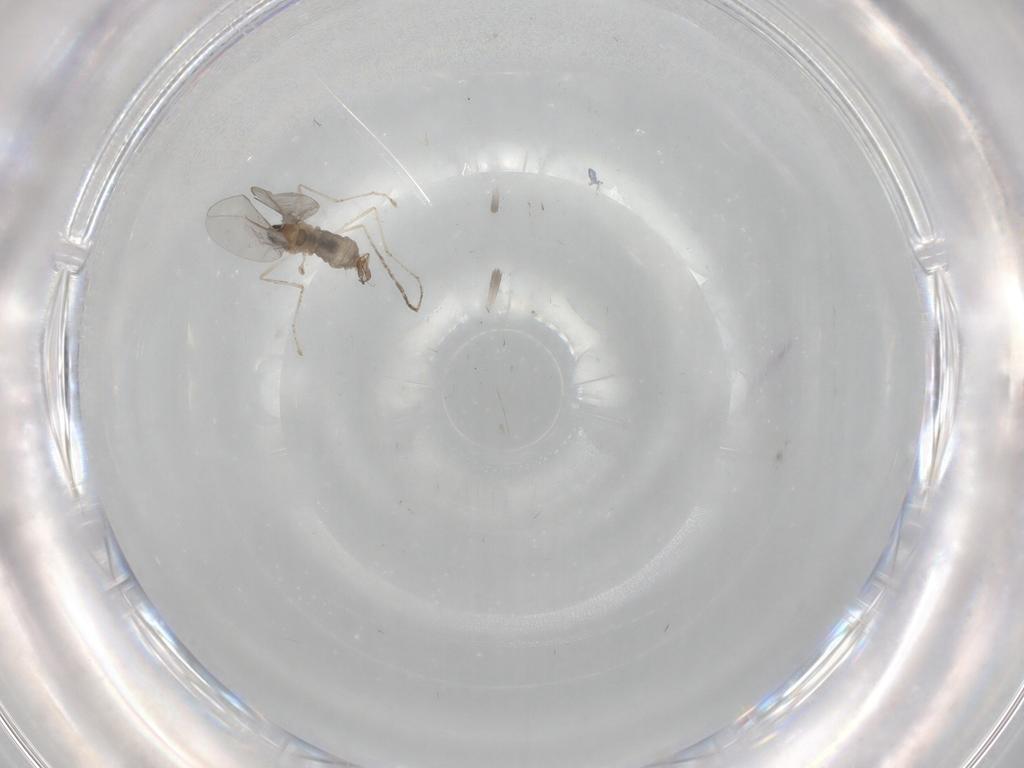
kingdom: Animalia
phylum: Arthropoda
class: Insecta
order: Diptera
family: Cecidomyiidae
